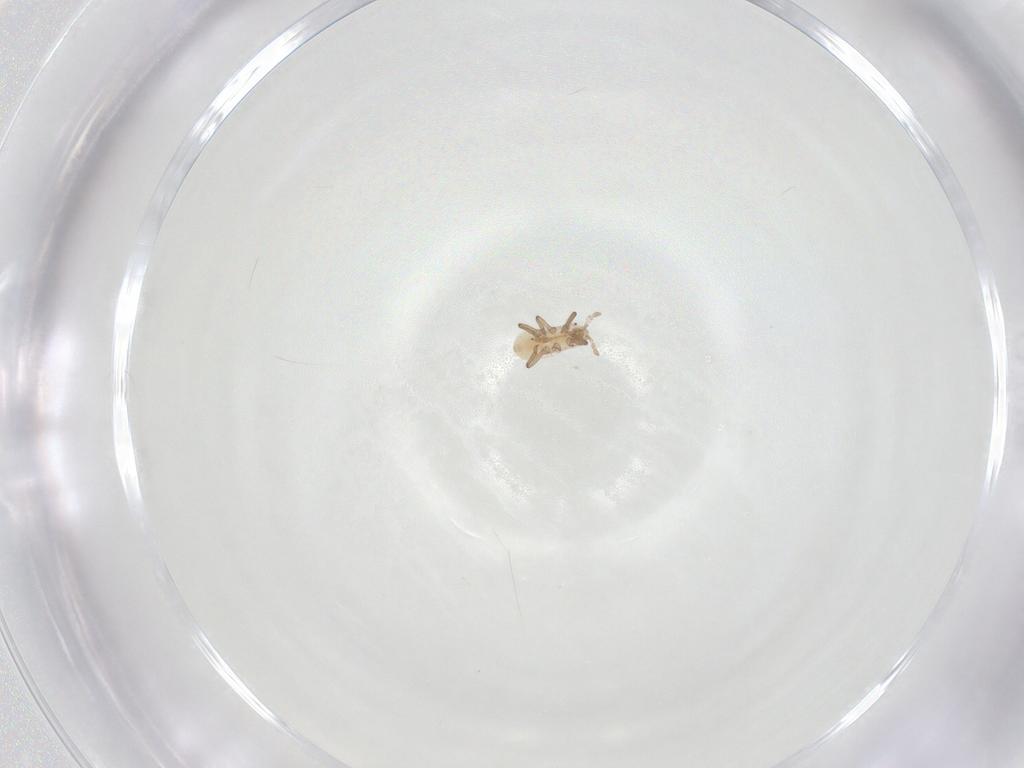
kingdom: Animalia
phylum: Arthropoda
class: Insecta
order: Hemiptera
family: Aphididae
